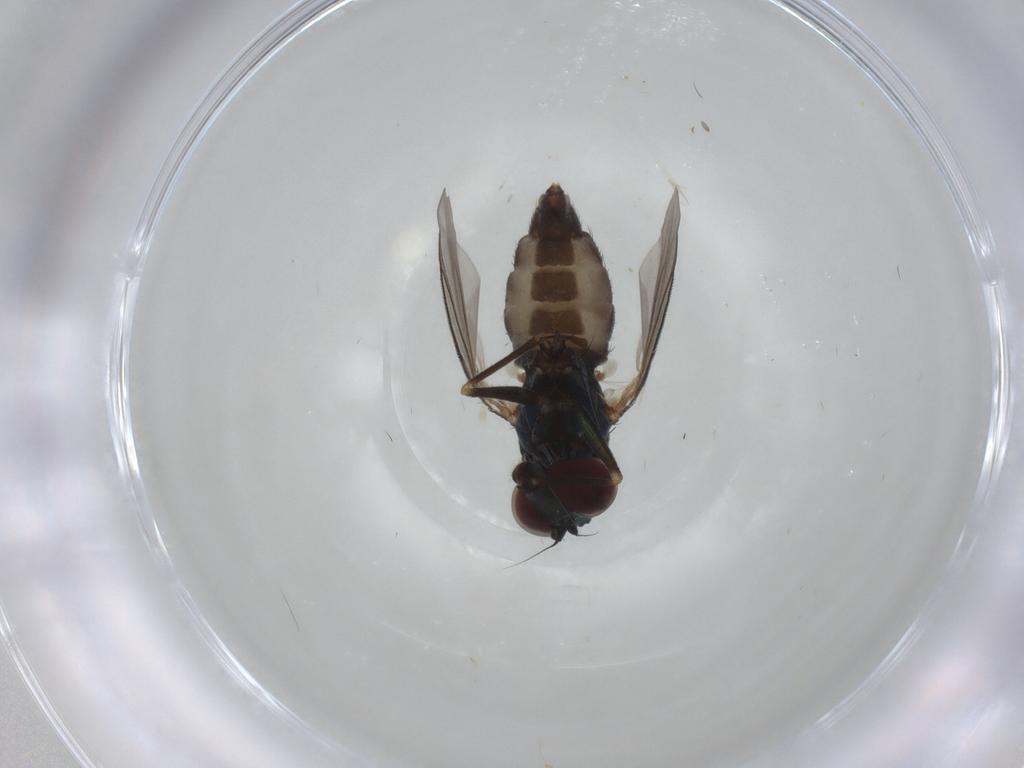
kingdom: Animalia
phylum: Arthropoda
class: Insecta
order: Diptera
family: Dolichopodidae
